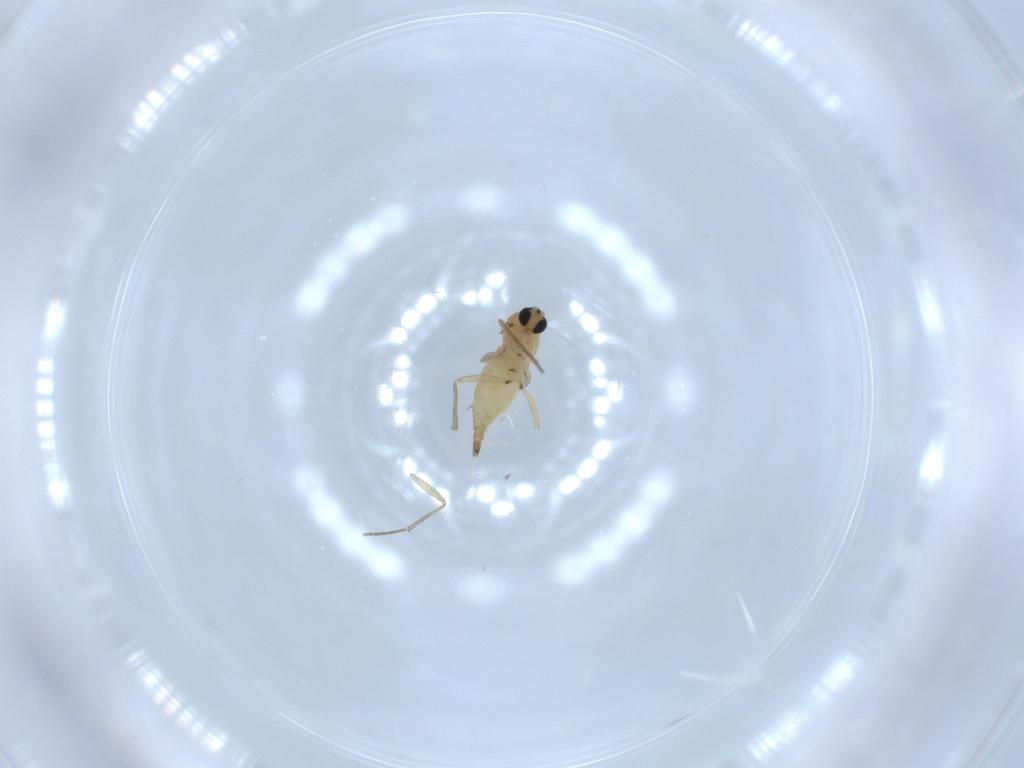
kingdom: Animalia
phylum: Arthropoda
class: Insecta
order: Diptera
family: Sciaridae
